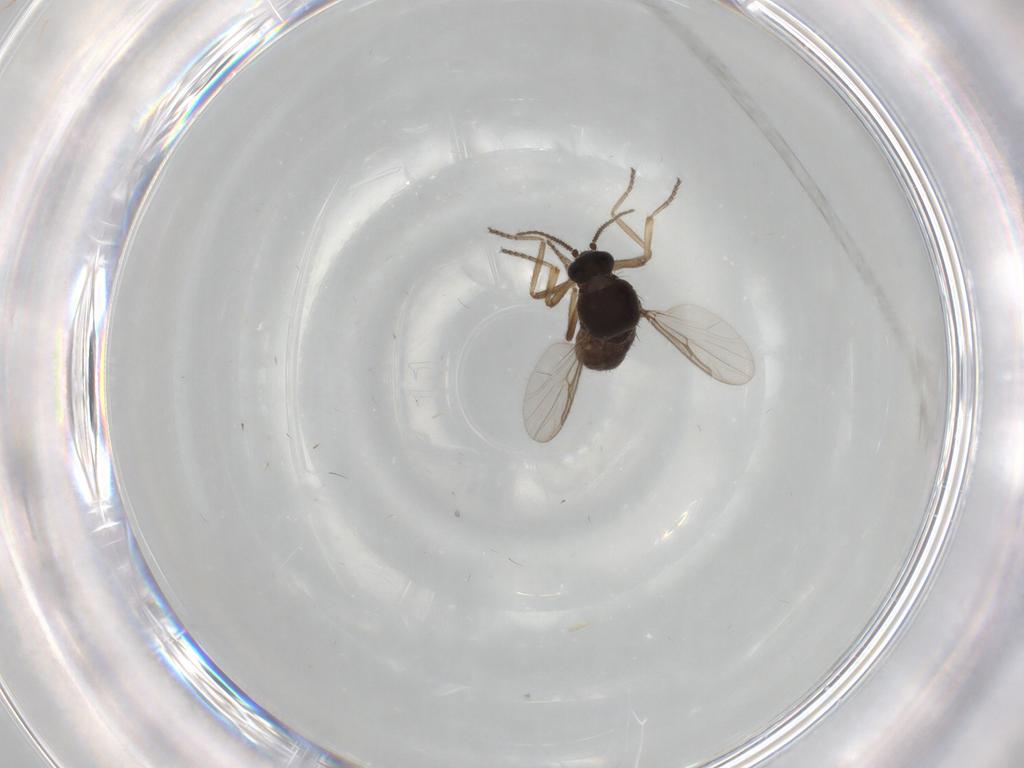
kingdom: Animalia
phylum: Arthropoda
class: Insecta
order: Diptera
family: Ceratopogonidae
